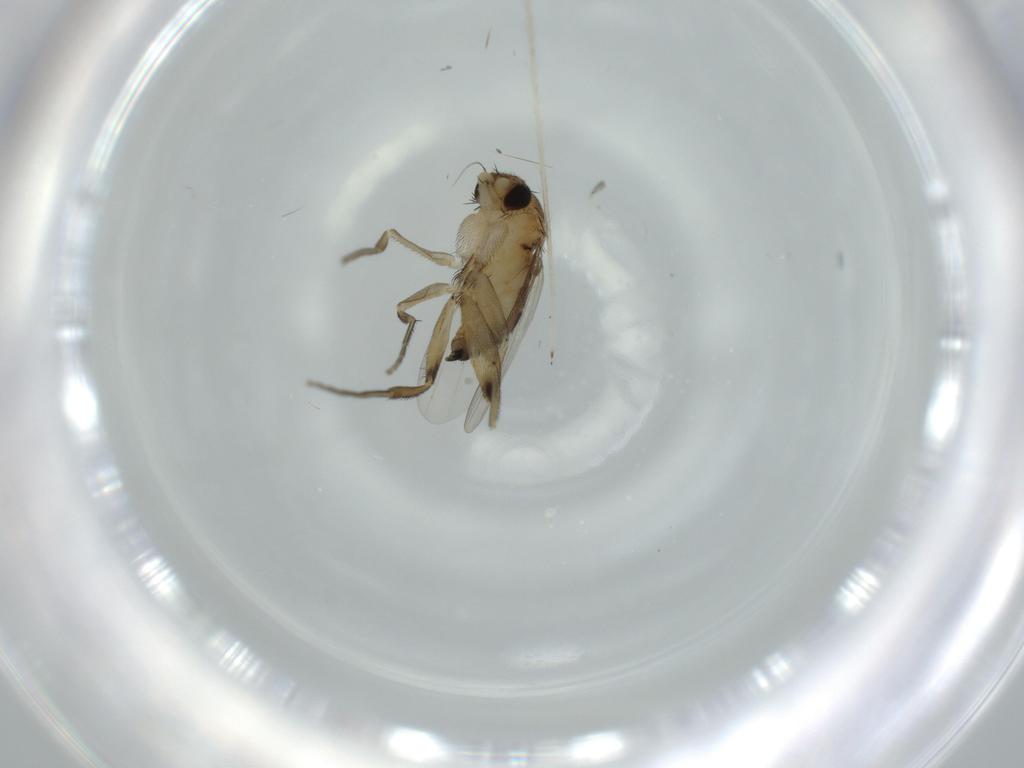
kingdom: Animalia
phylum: Arthropoda
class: Insecta
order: Diptera
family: Phoridae
